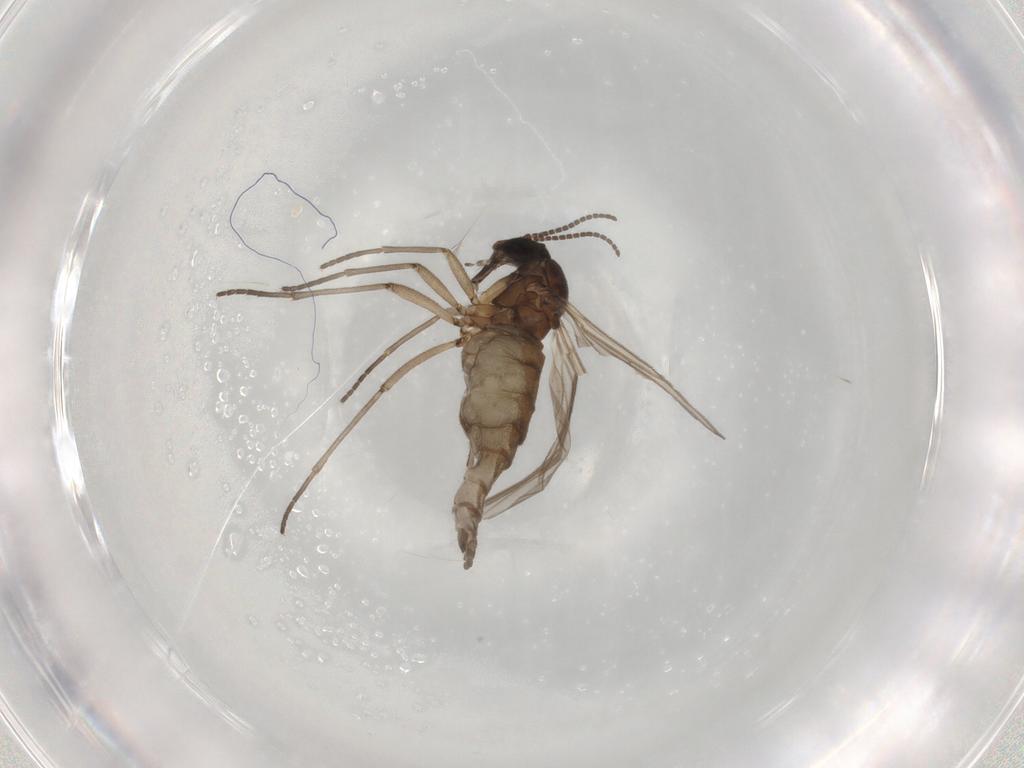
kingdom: Animalia
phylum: Arthropoda
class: Insecta
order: Diptera
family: Sciaridae
